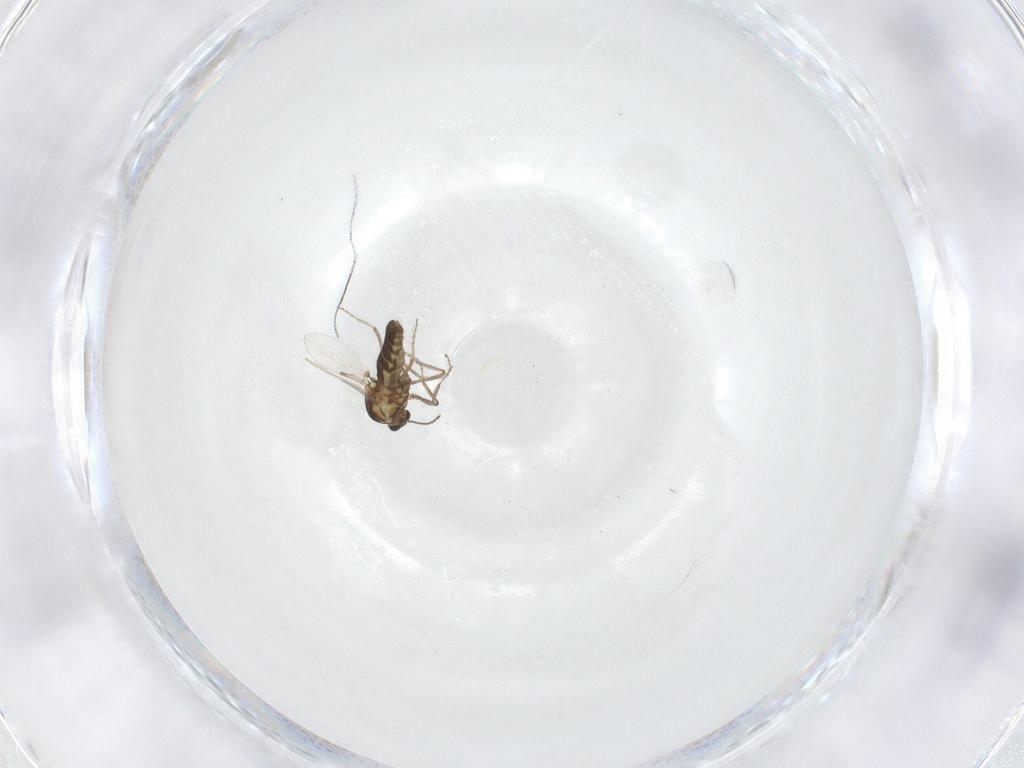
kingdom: Animalia
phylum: Arthropoda
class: Insecta
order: Diptera
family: Ceratopogonidae
